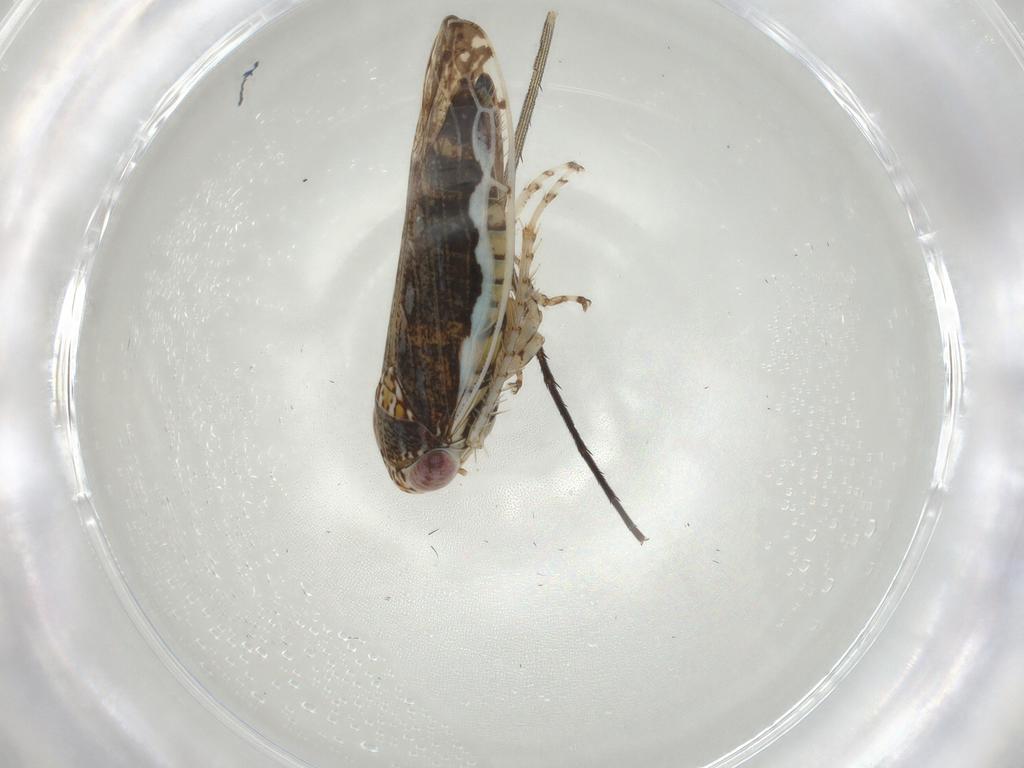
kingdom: Animalia
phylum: Arthropoda
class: Insecta
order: Hemiptera
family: Cicadellidae
